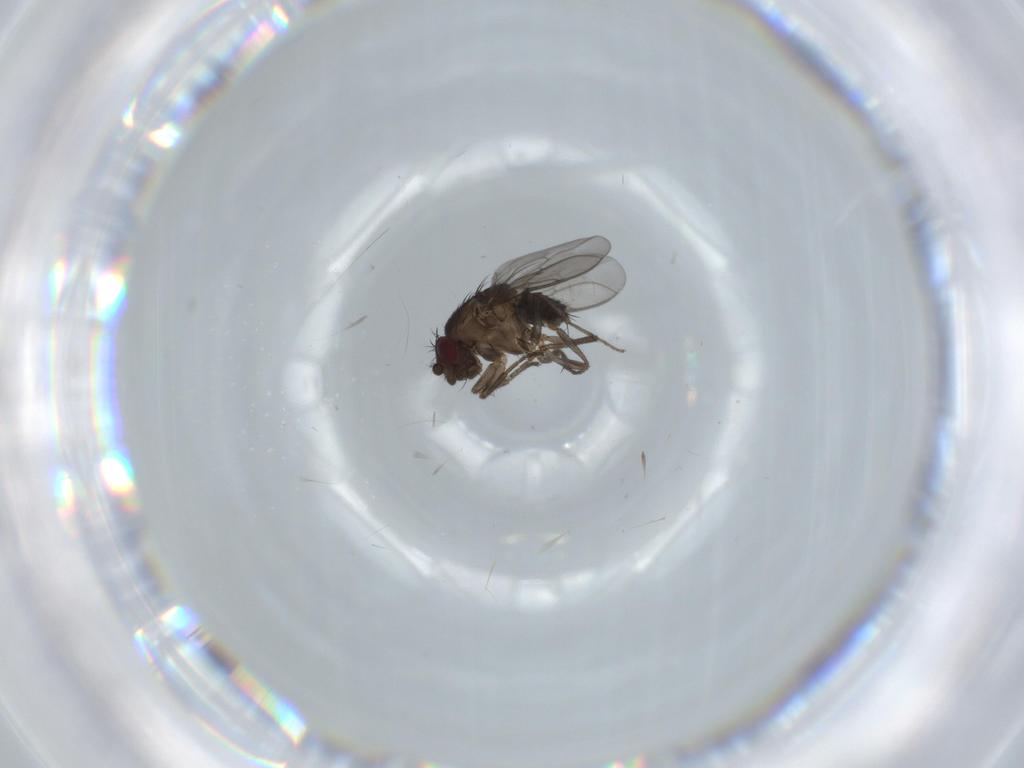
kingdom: Animalia
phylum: Arthropoda
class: Insecta
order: Diptera
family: Sphaeroceridae
